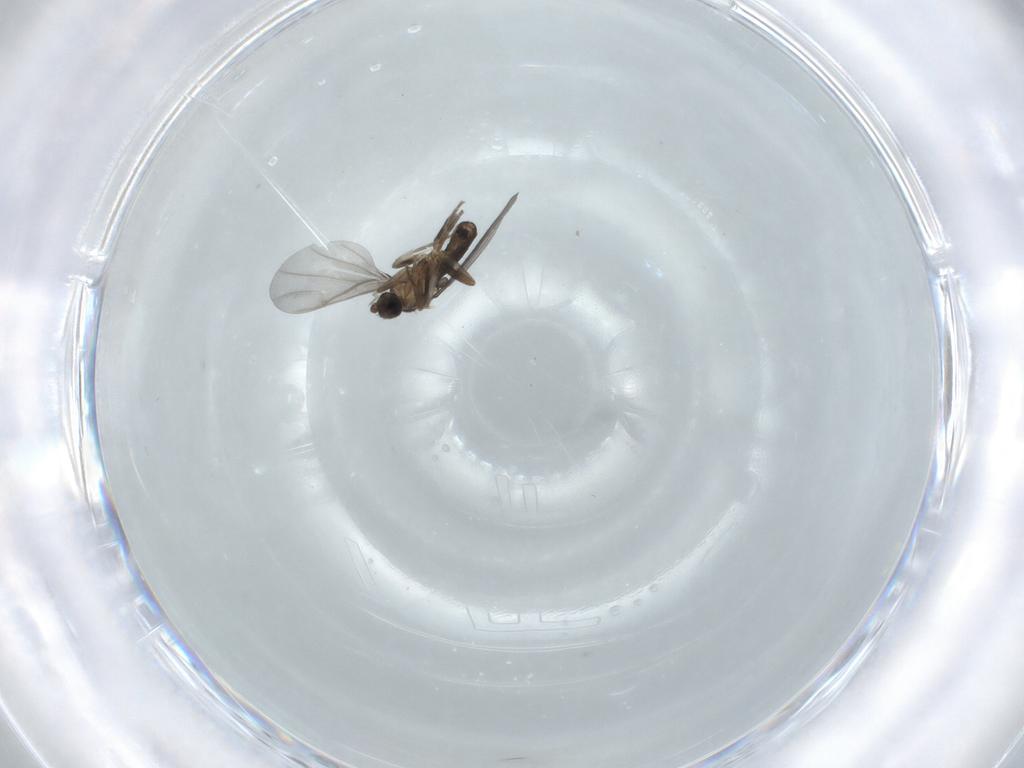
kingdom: Animalia
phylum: Arthropoda
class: Insecta
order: Diptera
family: Phoridae
